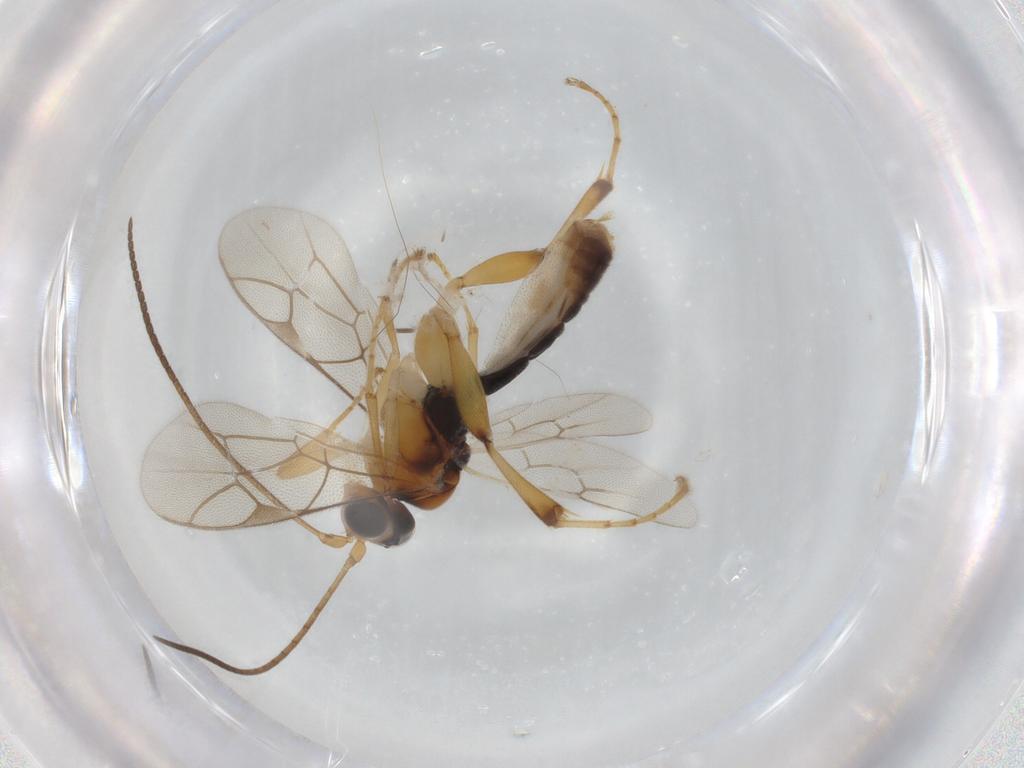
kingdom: Animalia
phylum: Arthropoda
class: Insecta
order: Hymenoptera
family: Ichneumonidae
